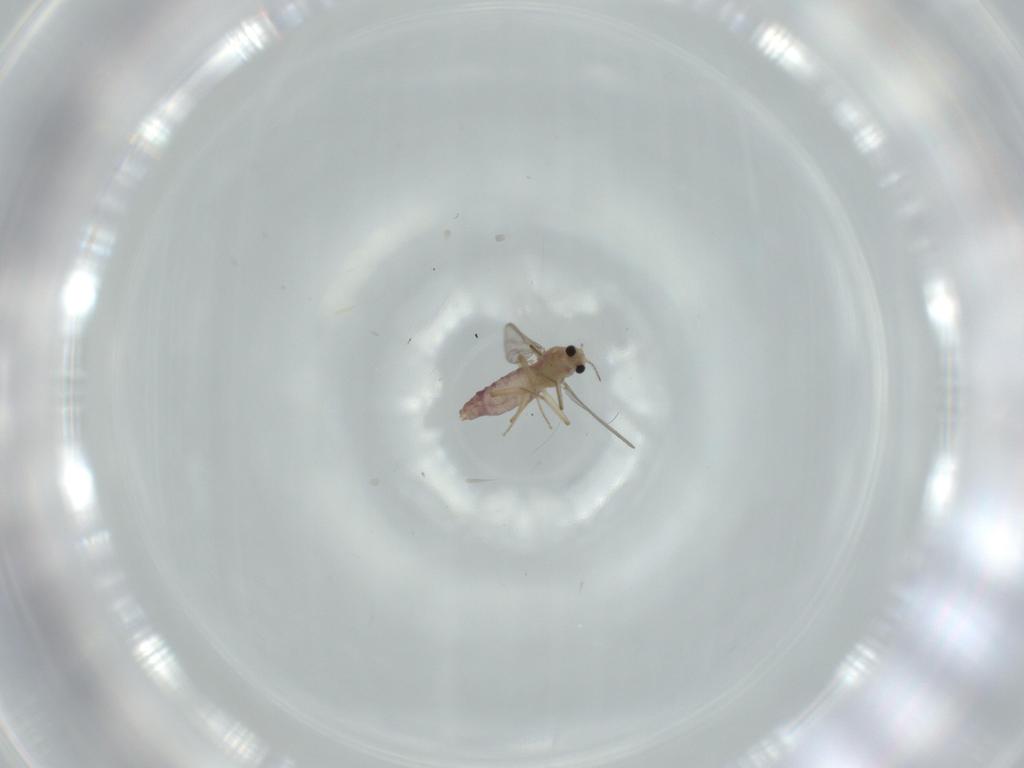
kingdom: Animalia
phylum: Arthropoda
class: Insecta
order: Diptera
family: Chironomidae
